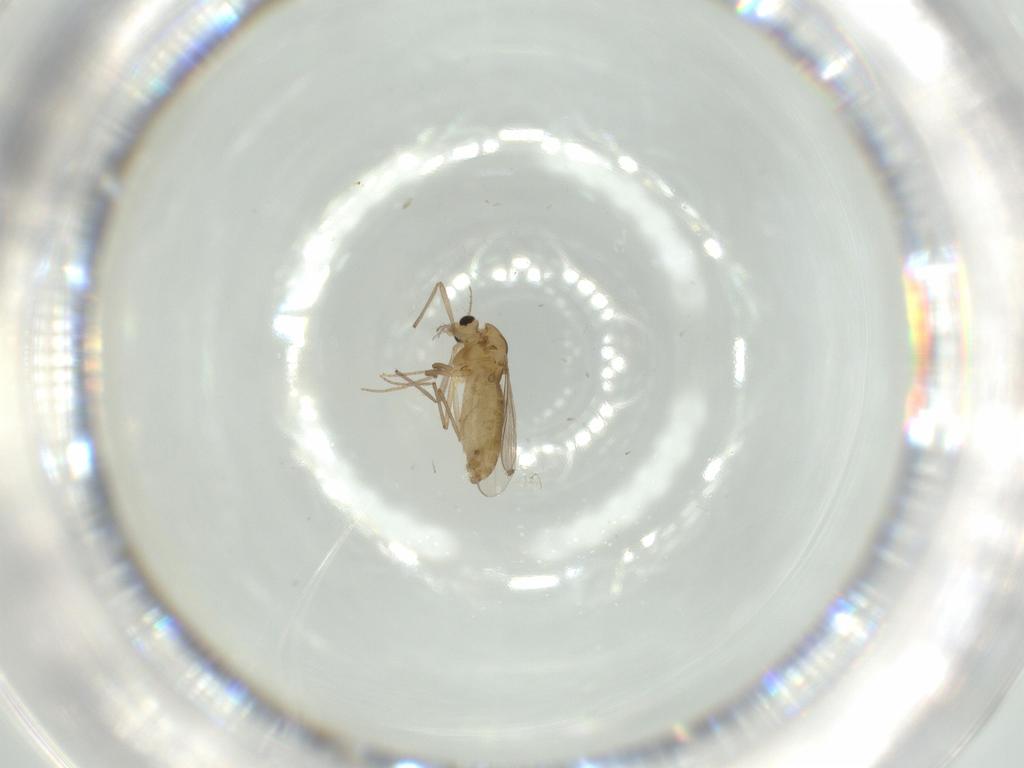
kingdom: Animalia
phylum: Arthropoda
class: Insecta
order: Diptera
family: Chironomidae
